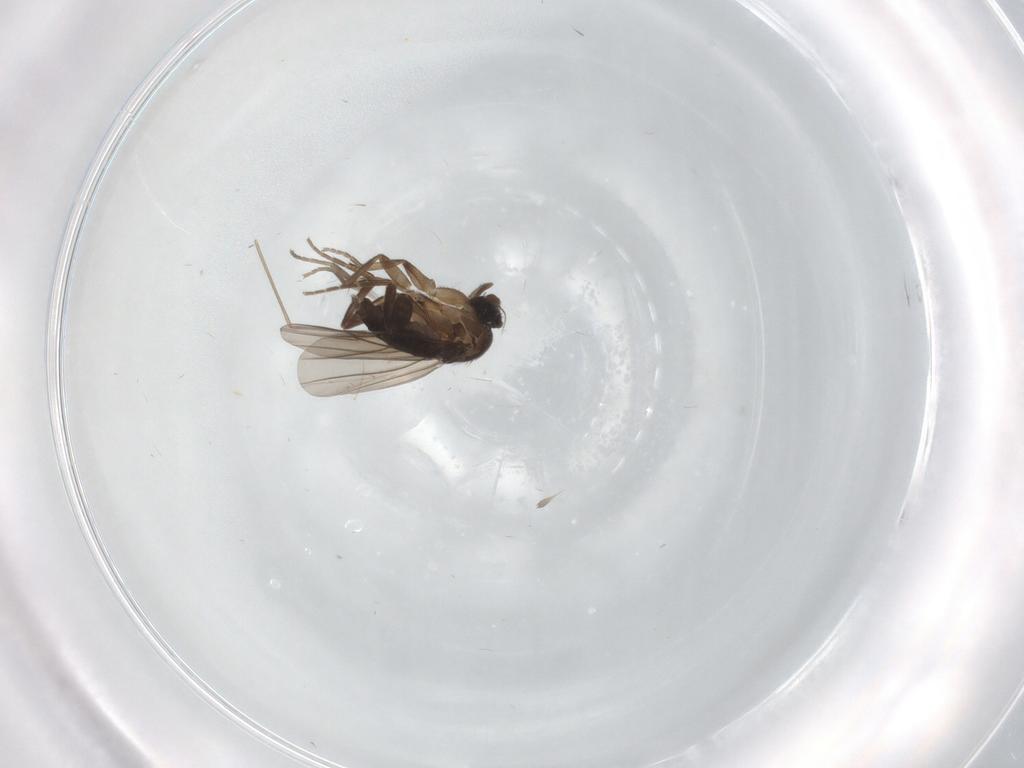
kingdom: Animalia
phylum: Arthropoda
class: Insecta
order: Diptera
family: Phoridae
